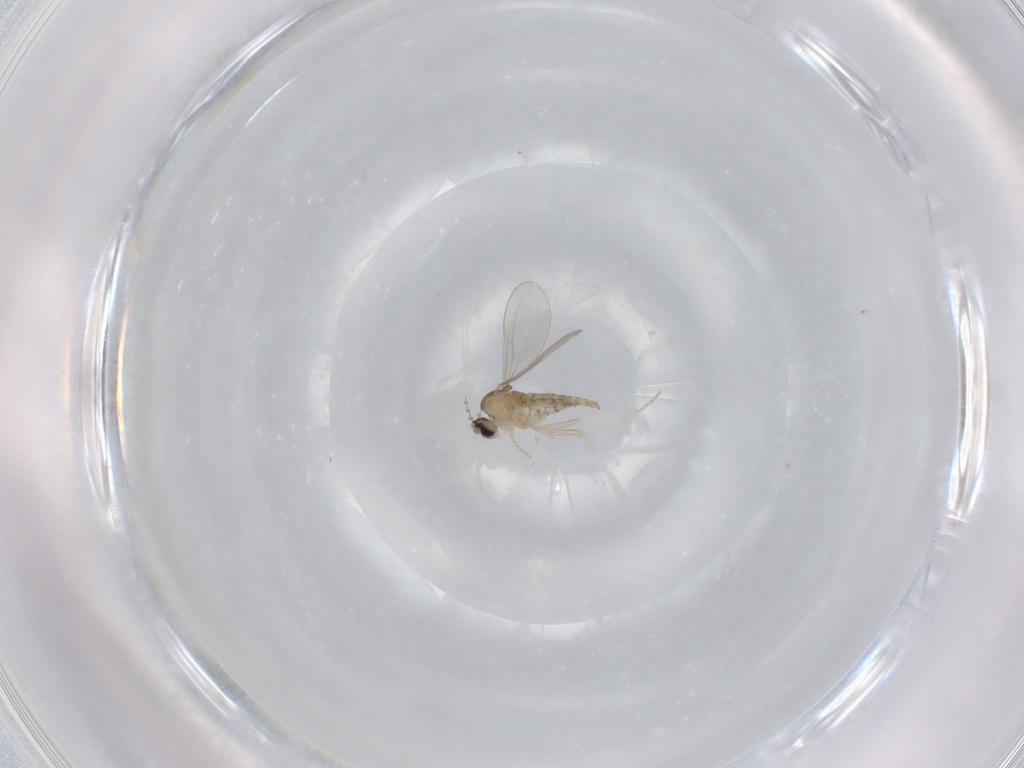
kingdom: Animalia
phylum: Arthropoda
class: Insecta
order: Diptera
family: Cecidomyiidae
